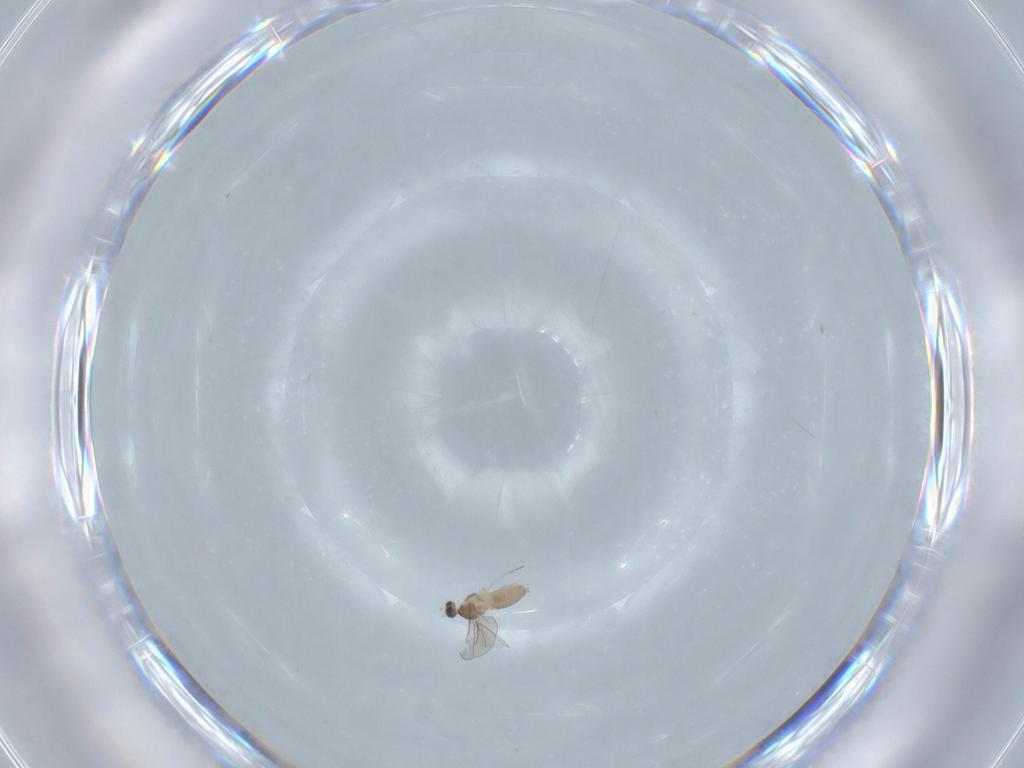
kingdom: Animalia
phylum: Arthropoda
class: Insecta
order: Diptera
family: Cecidomyiidae
